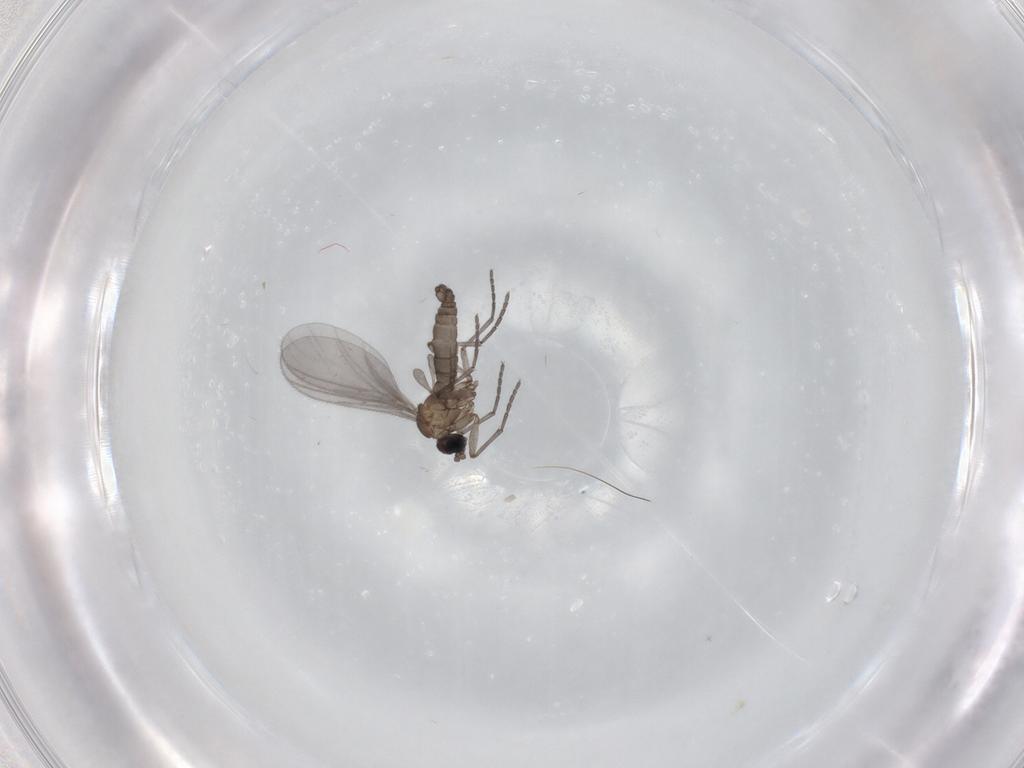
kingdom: Animalia
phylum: Arthropoda
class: Insecta
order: Diptera
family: Sciaridae
